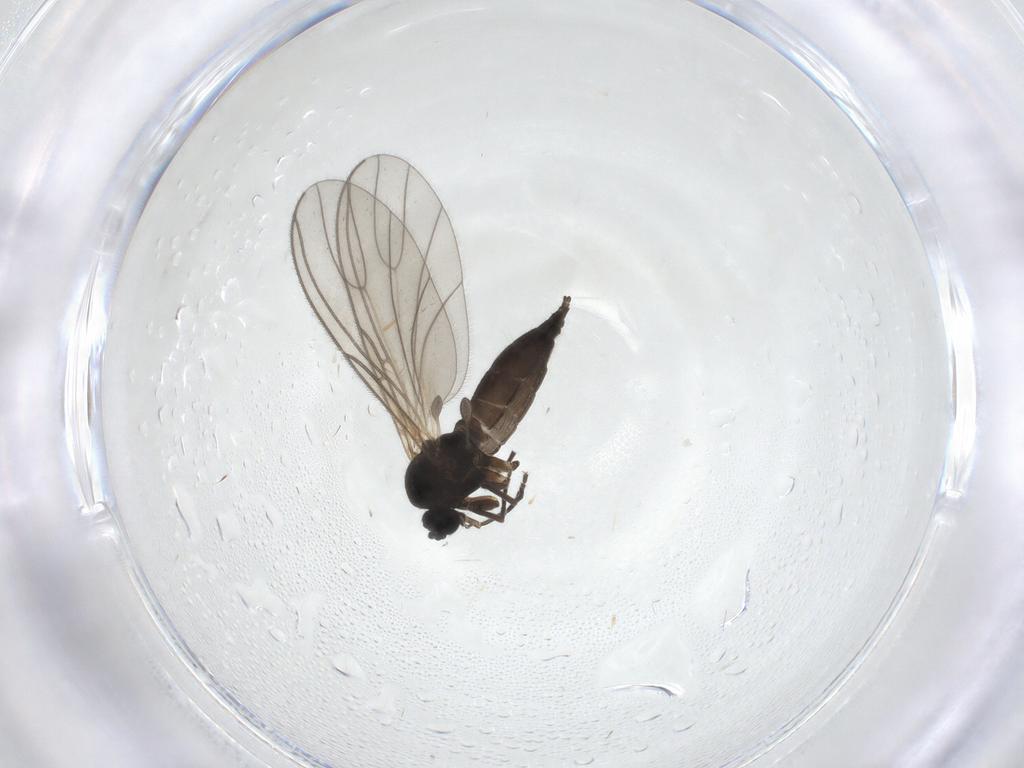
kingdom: Animalia
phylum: Arthropoda
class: Insecta
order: Diptera
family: Sciaridae
